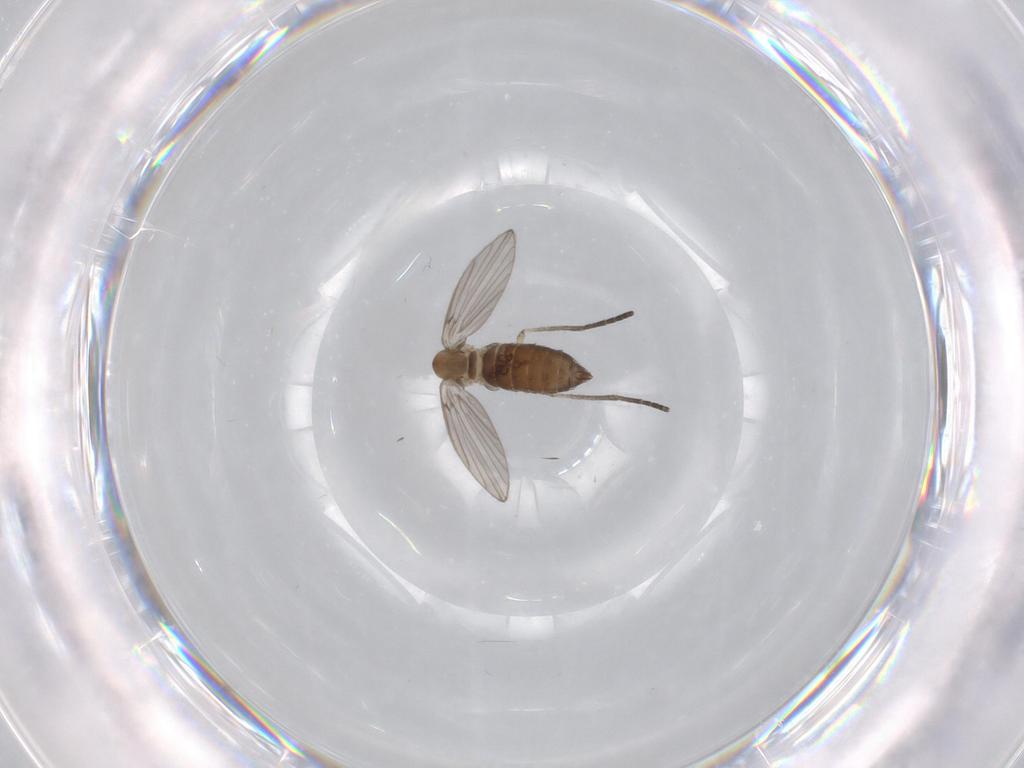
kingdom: Animalia
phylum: Arthropoda
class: Insecta
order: Diptera
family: Psychodidae
